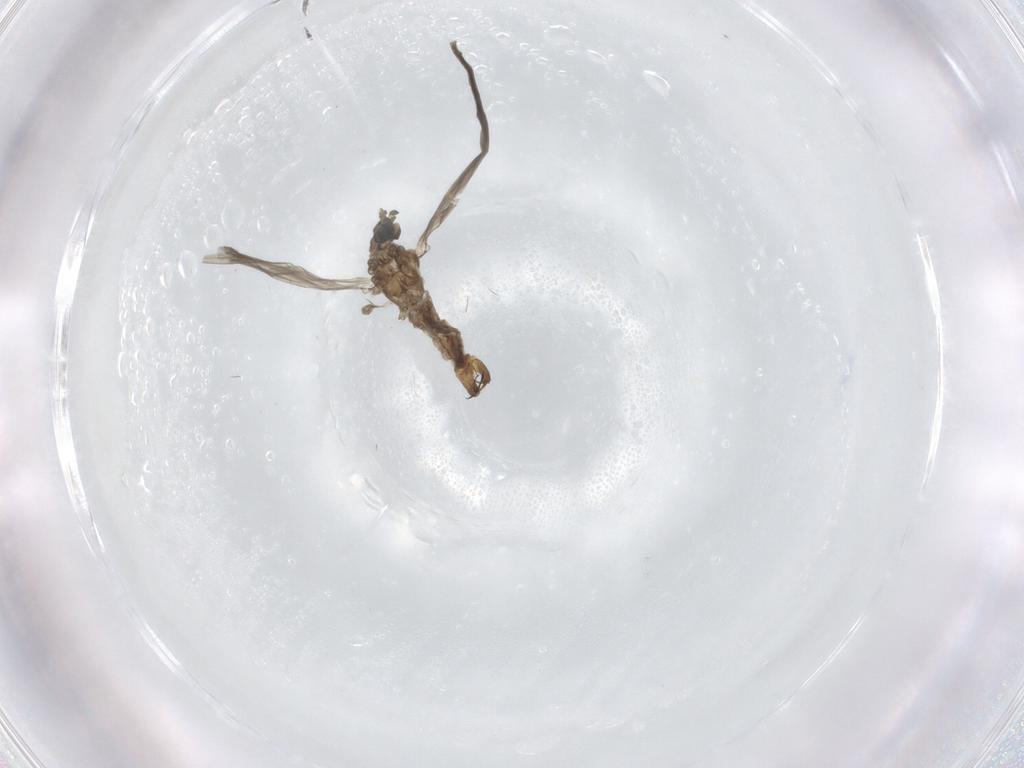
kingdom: Animalia
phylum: Arthropoda
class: Insecta
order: Diptera
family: Limoniidae
